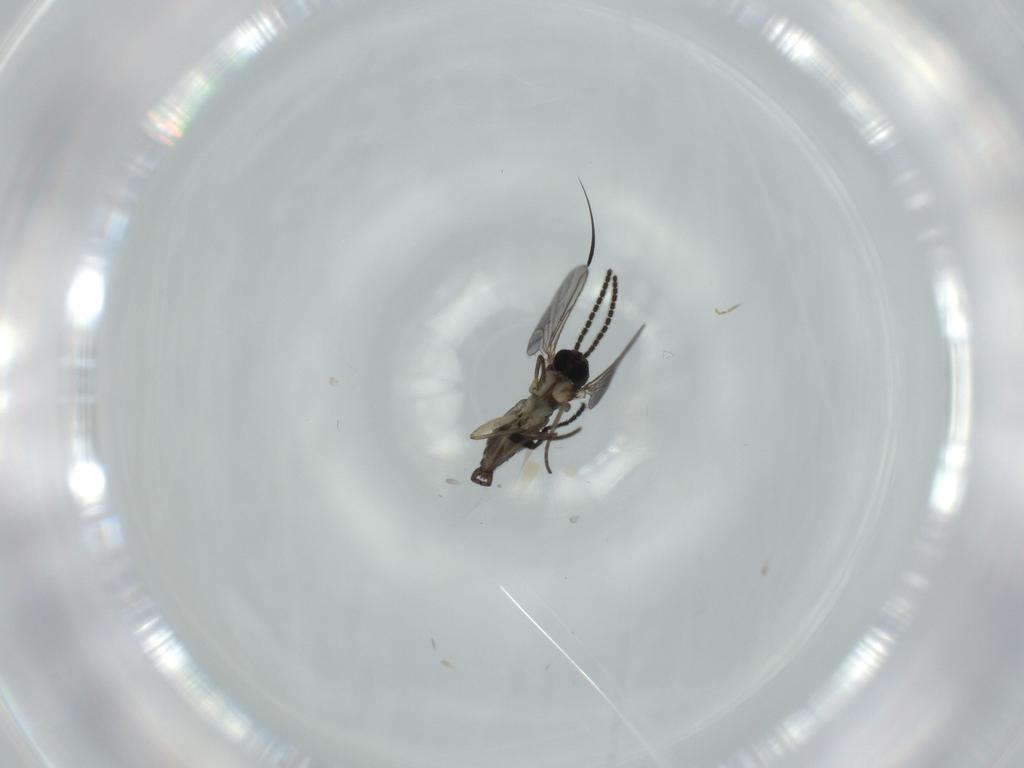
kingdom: Animalia
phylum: Arthropoda
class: Insecta
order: Diptera
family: Sciaridae
